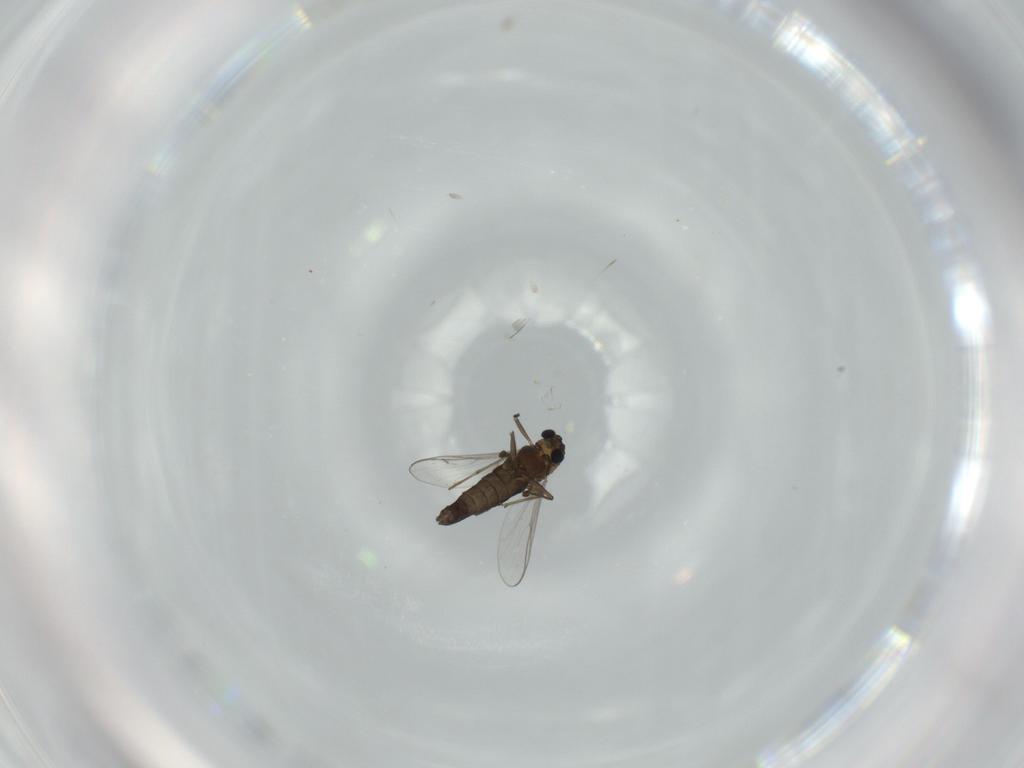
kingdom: Animalia
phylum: Arthropoda
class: Insecta
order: Diptera
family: Chironomidae
